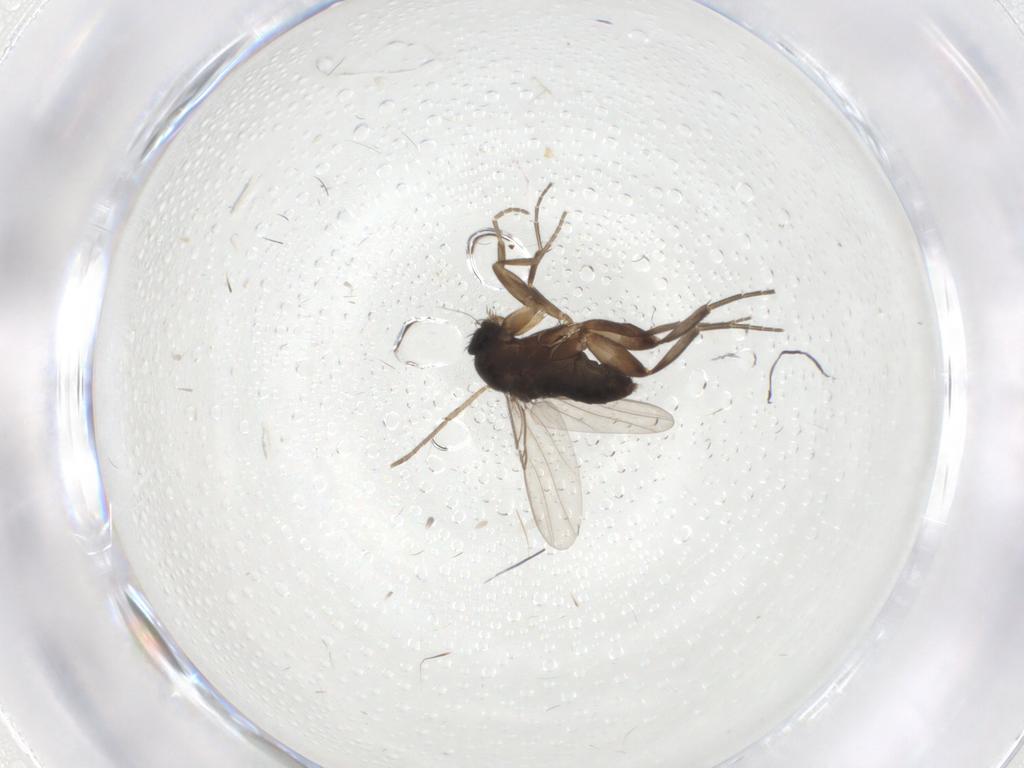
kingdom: Animalia
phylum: Arthropoda
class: Insecta
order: Diptera
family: Phoridae
